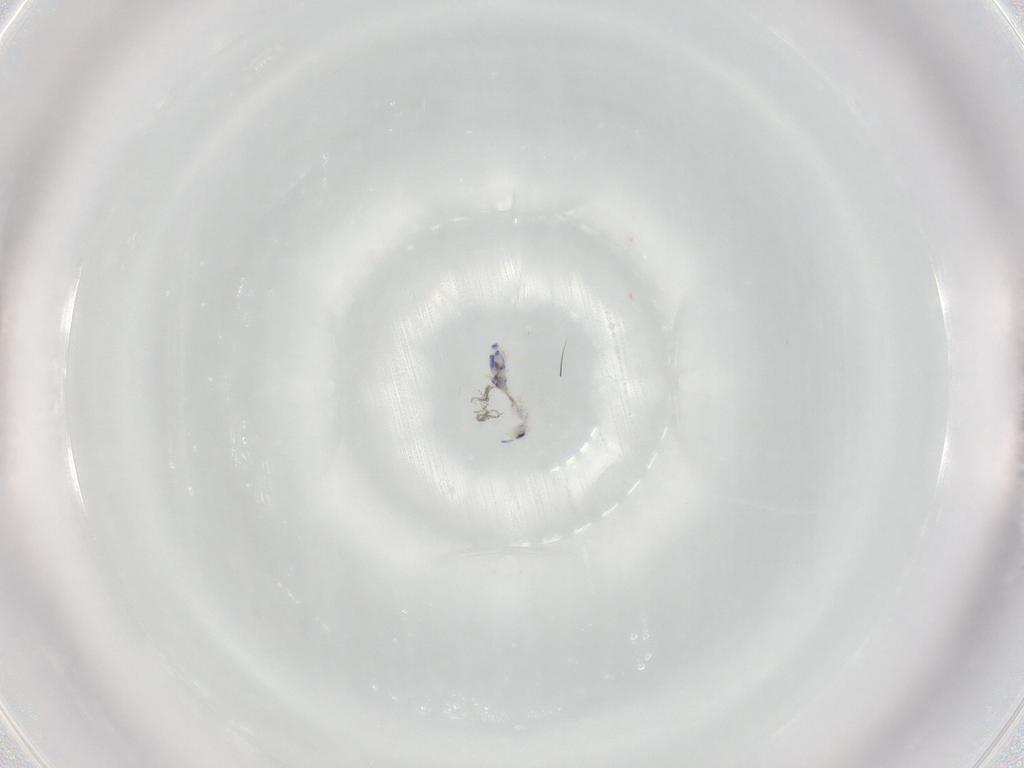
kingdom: Animalia
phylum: Arthropoda
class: Collembola
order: Entomobryomorpha
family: Entomobryidae
